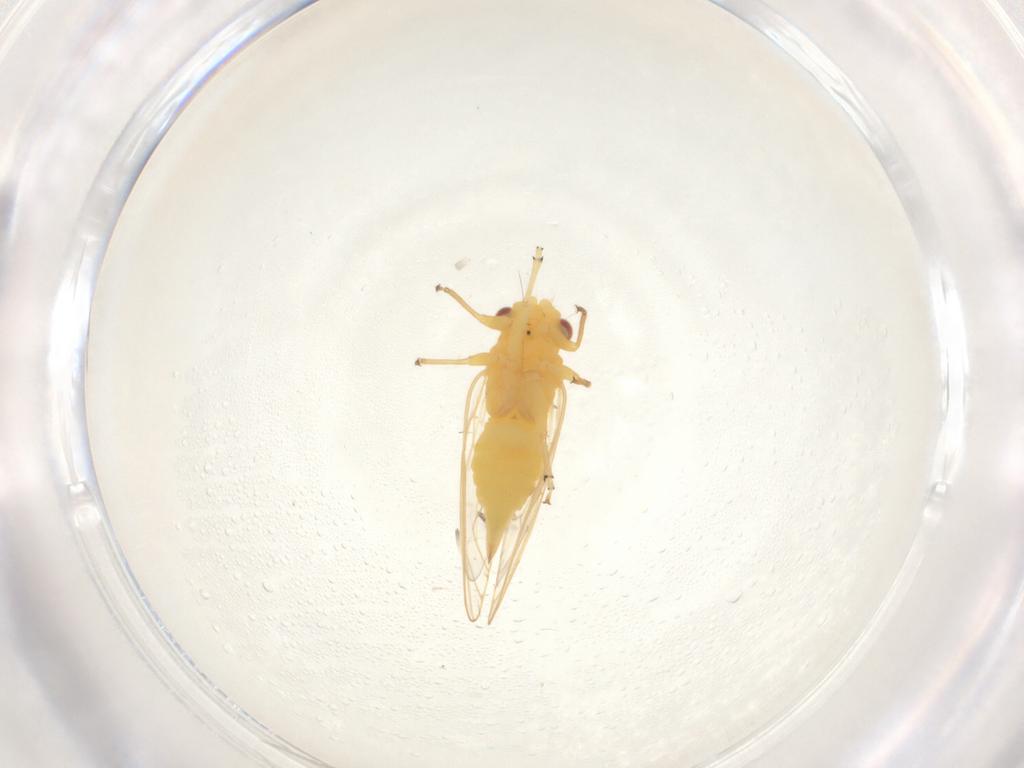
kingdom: Animalia
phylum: Arthropoda
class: Insecta
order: Hemiptera
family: Psyllidae
